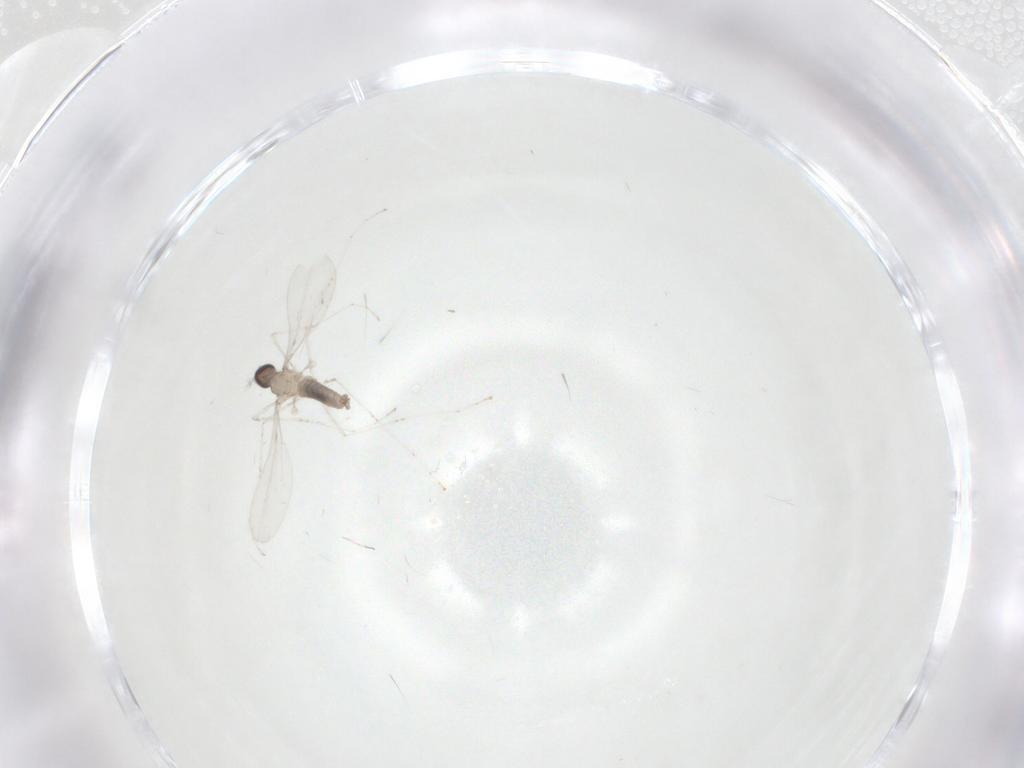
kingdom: Animalia
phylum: Arthropoda
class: Insecta
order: Diptera
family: Cecidomyiidae
